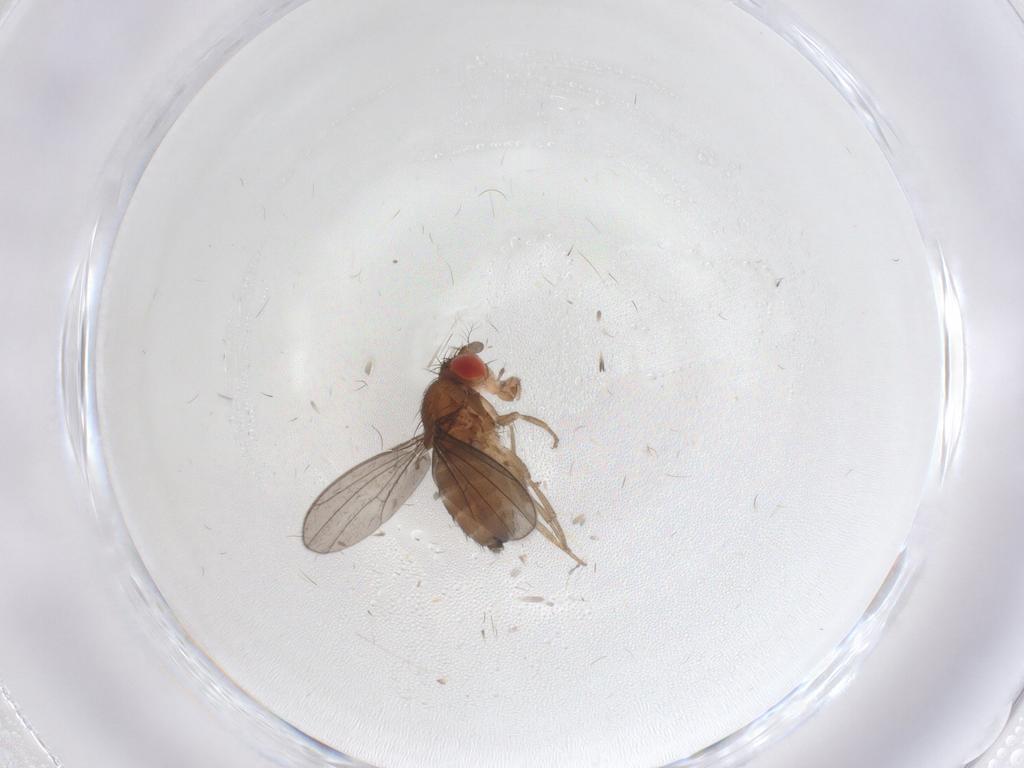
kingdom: Animalia
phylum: Arthropoda
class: Insecta
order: Diptera
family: Drosophilidae
